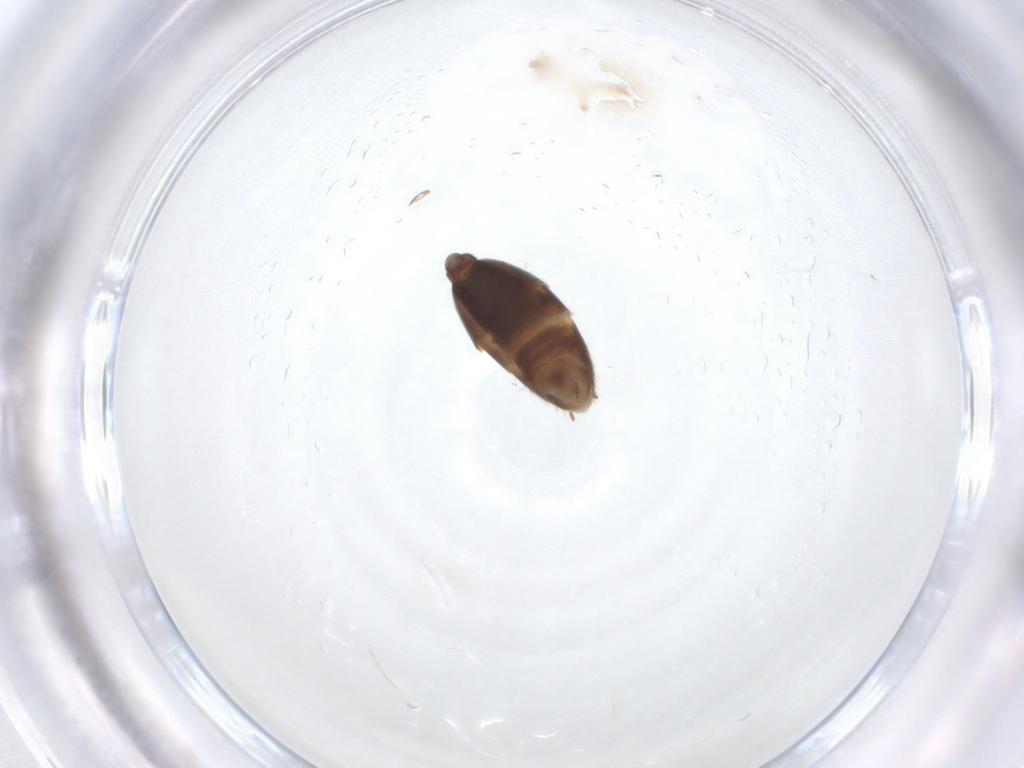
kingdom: Animalia
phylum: Arthropoda
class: Insecta
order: Hymenoptera
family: Formicidae
